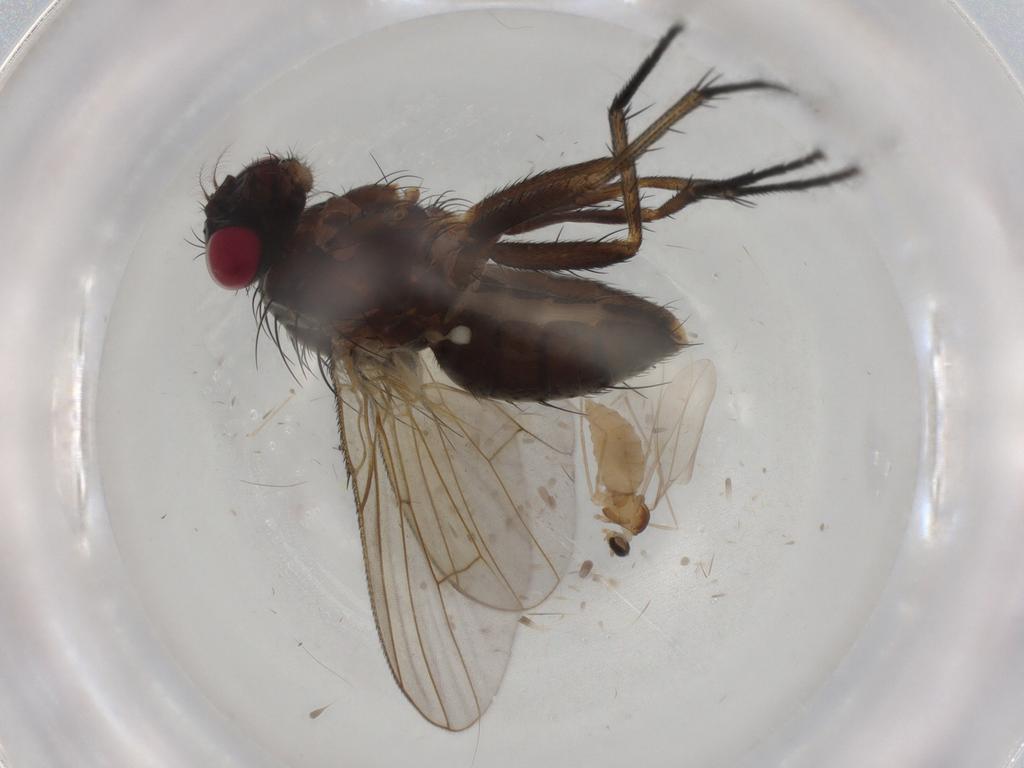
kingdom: Animalia
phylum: Arthropoda
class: Insecta
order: Diptera
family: Muscidae
